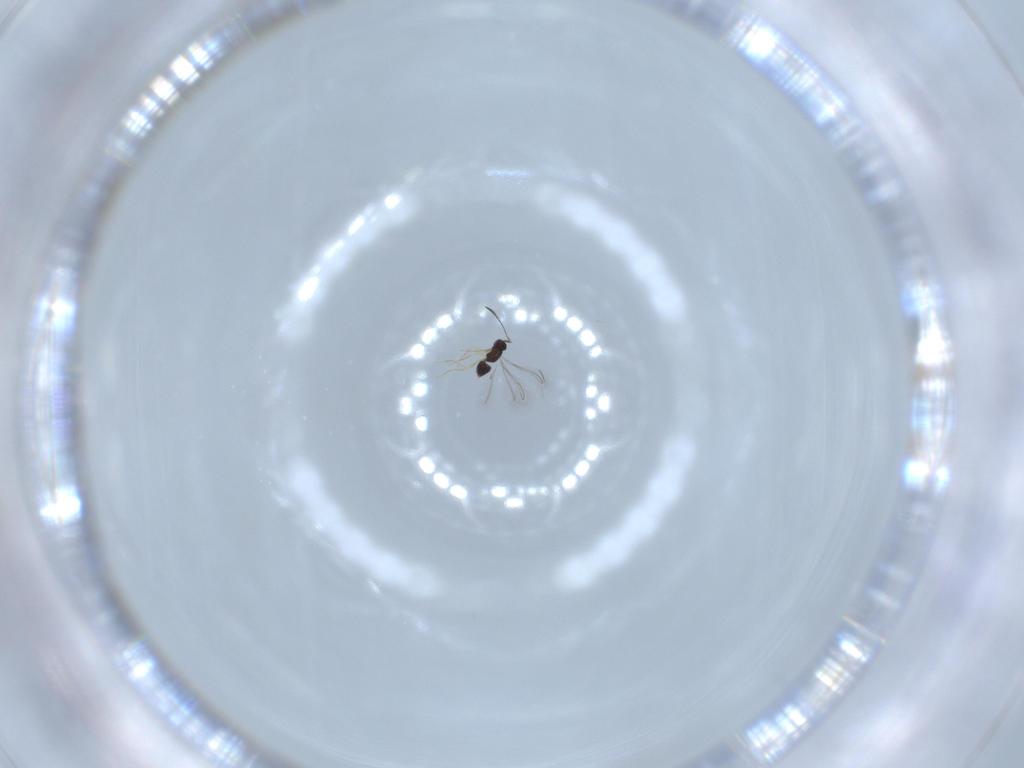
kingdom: Animalia
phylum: Arthropoda
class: Insecta
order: Hymenoptera
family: Mymaridae
